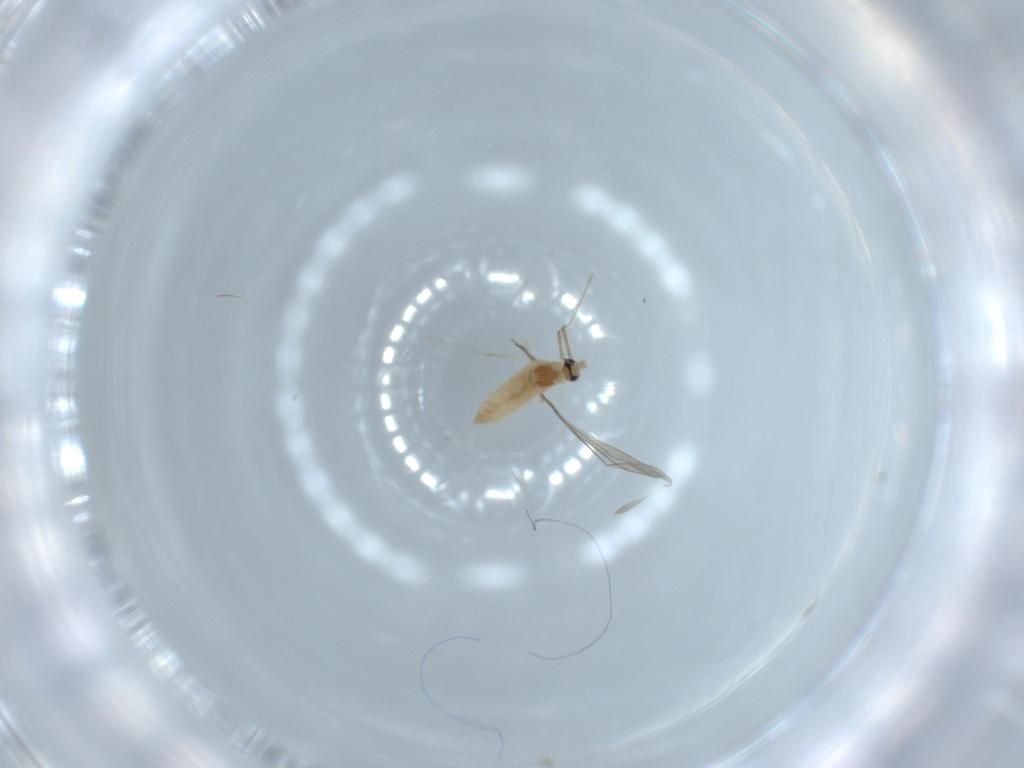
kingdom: Animalia
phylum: Arthropoda
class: Insecta
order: Diptera
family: Cecidomyiidae
